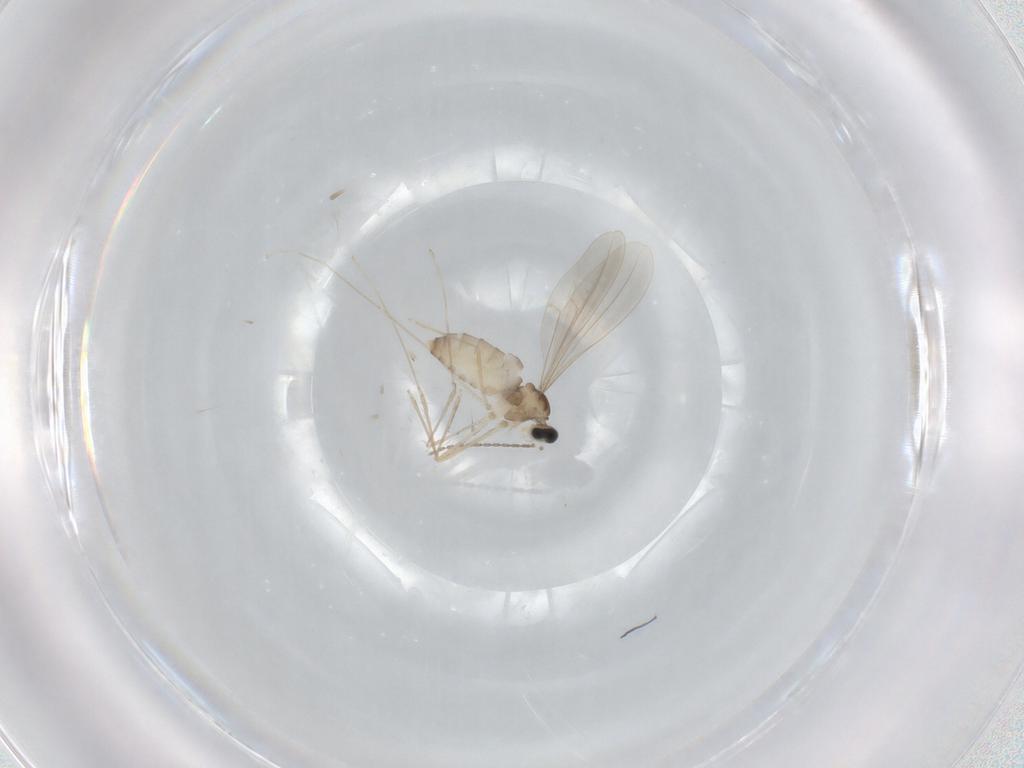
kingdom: Animalia
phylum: Arthropoda
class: Insecta
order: Diptera
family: Cecidomyiidae
